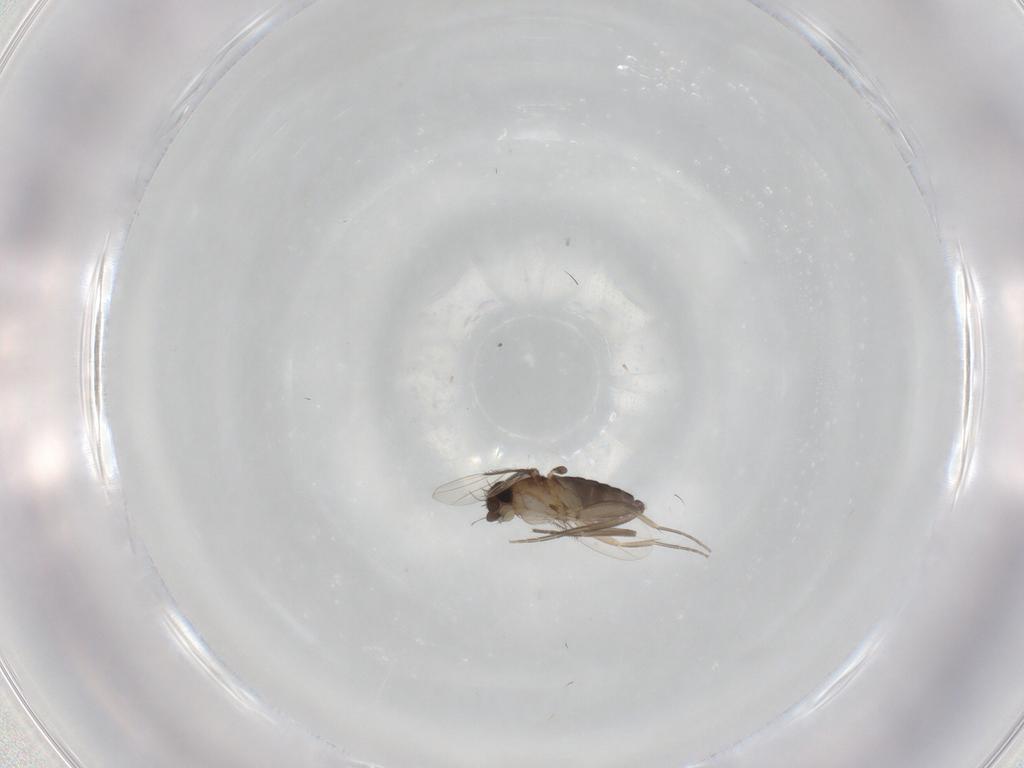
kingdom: Animalia
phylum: Arthropoda
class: Insecta
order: Diptera
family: Phoridae
